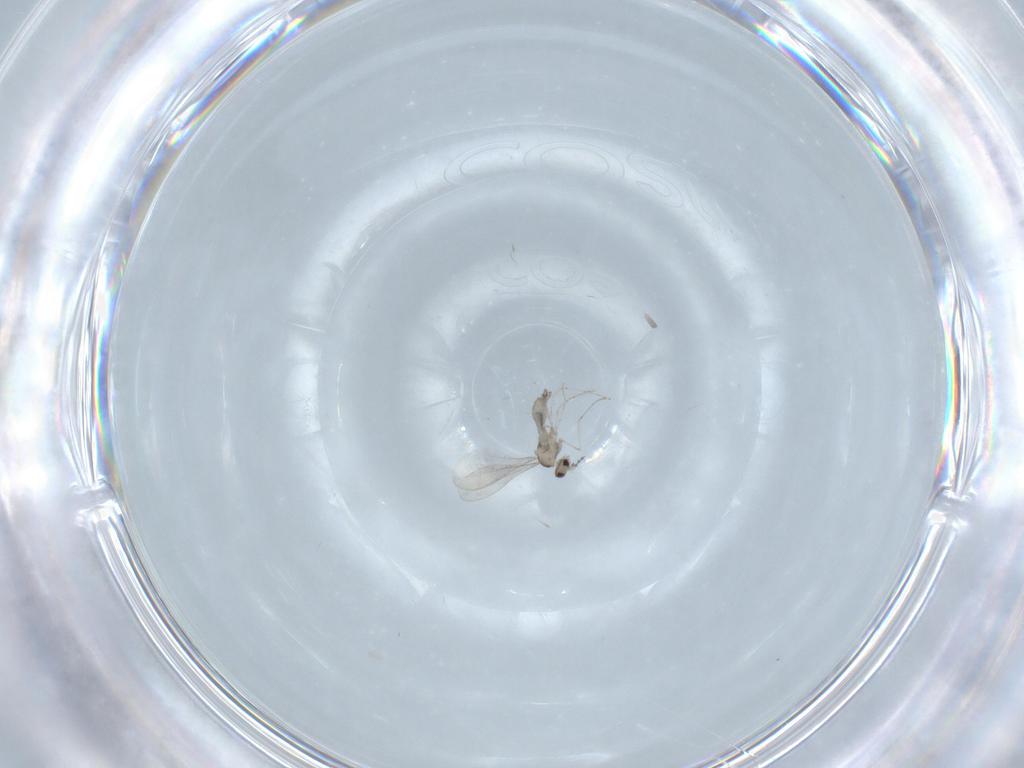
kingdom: Animalia
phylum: Arthropoda
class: Insecta
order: Diptera
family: Cecidomyiidae
